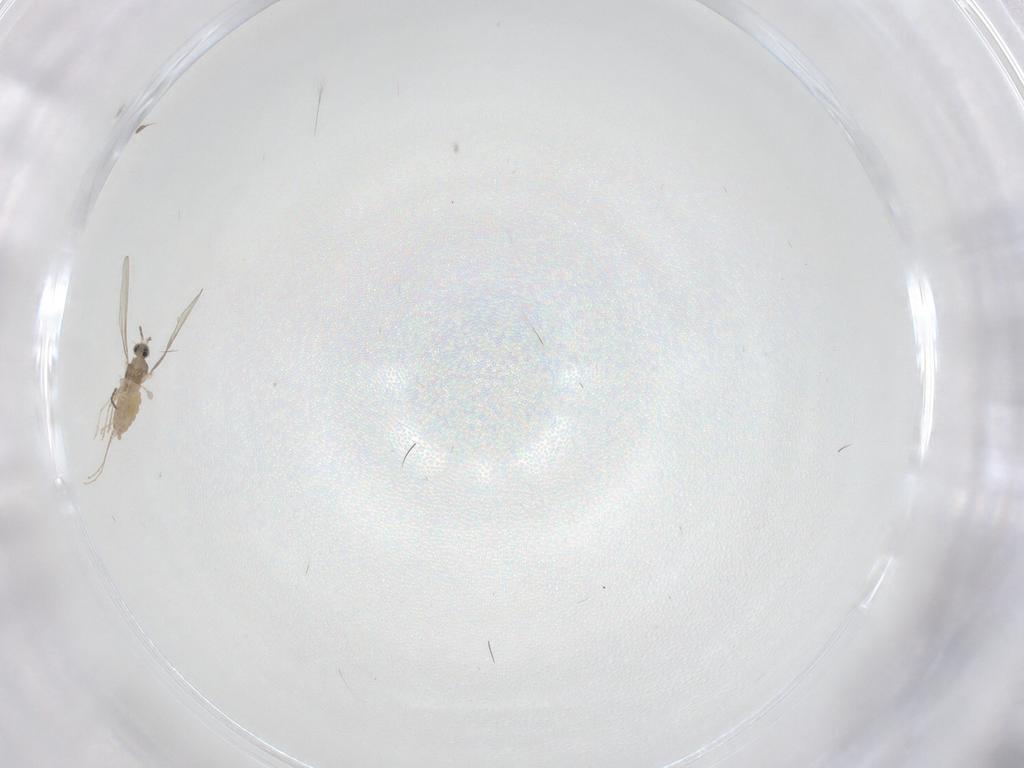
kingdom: Animalia
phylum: Arthropoda
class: Insecta
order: Diptera
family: Cecidomyiidae
